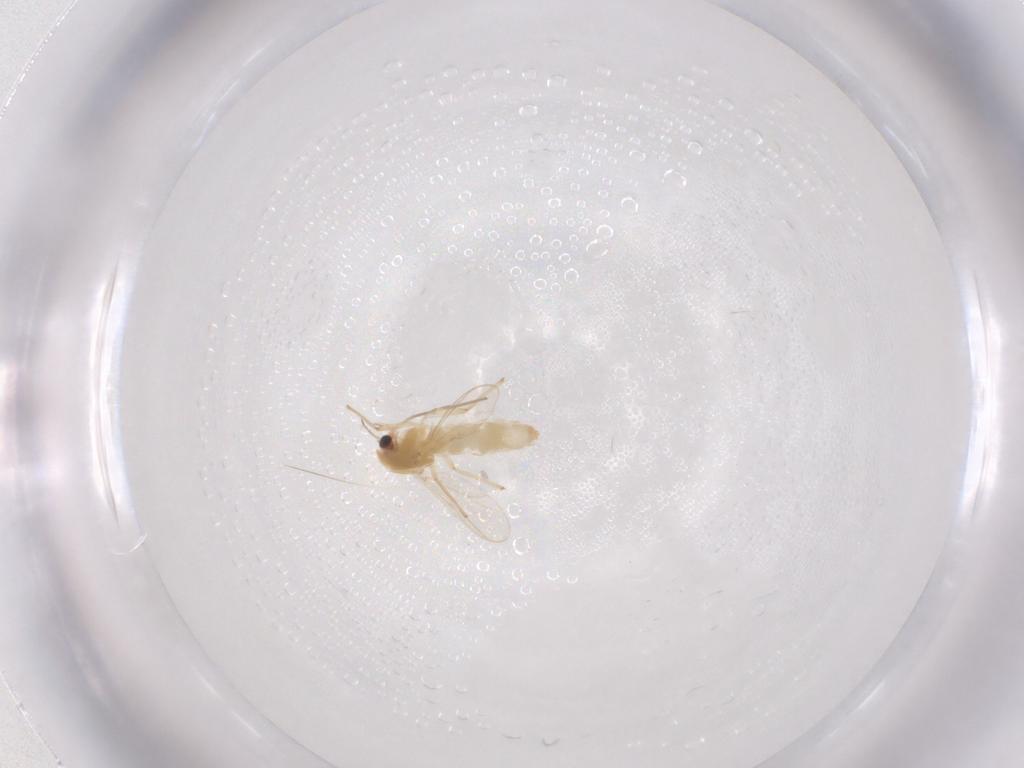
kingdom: Animalia
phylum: Arthropoda
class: Insecta
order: Diptera
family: Chironomidae
